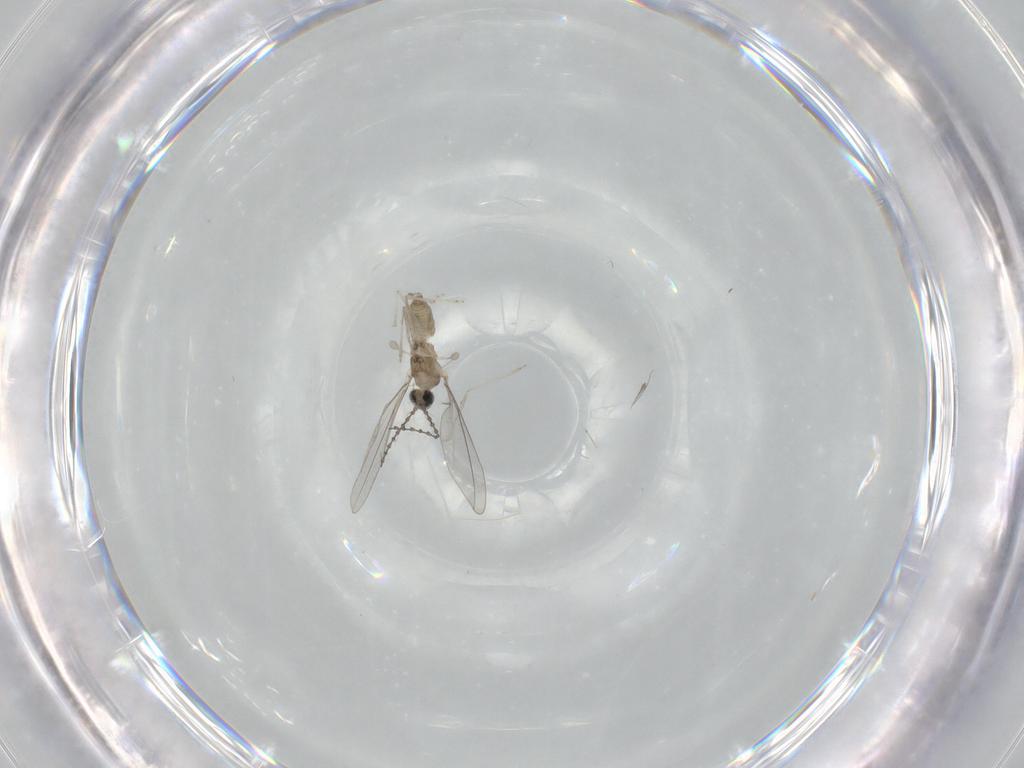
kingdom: Animalia
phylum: Arthropoda
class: Insecta
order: Diptera
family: Cecidomyiidae
